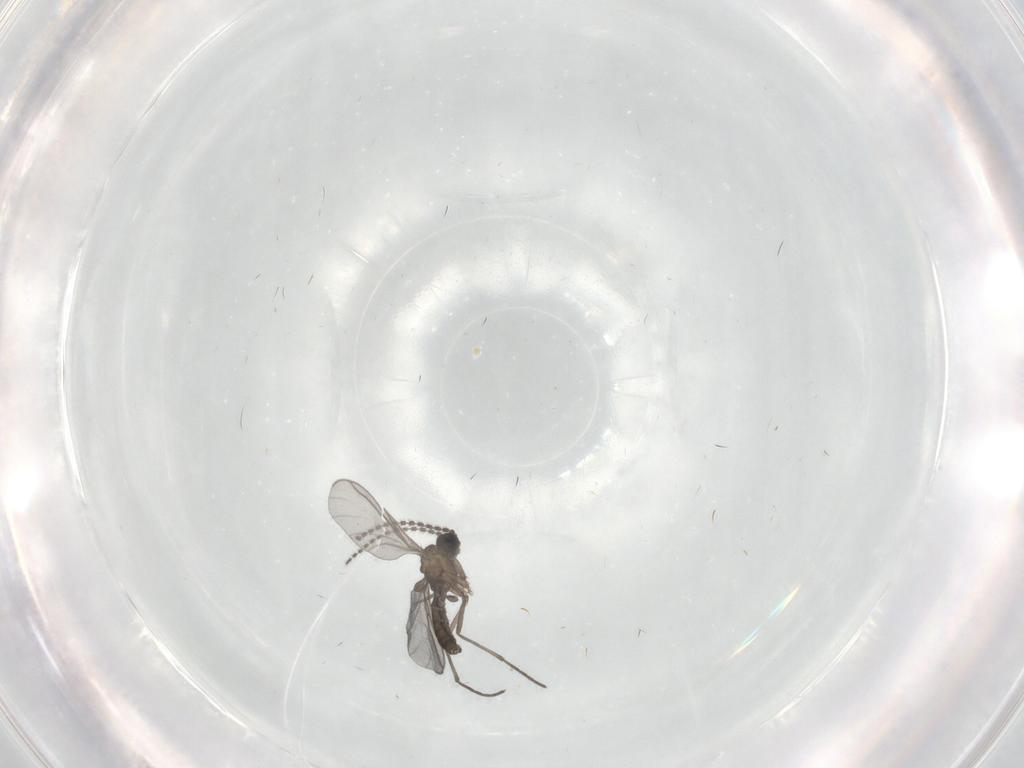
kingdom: Animalia
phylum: Arthropoda
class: Insecta
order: Diptera
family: Sciaridae
